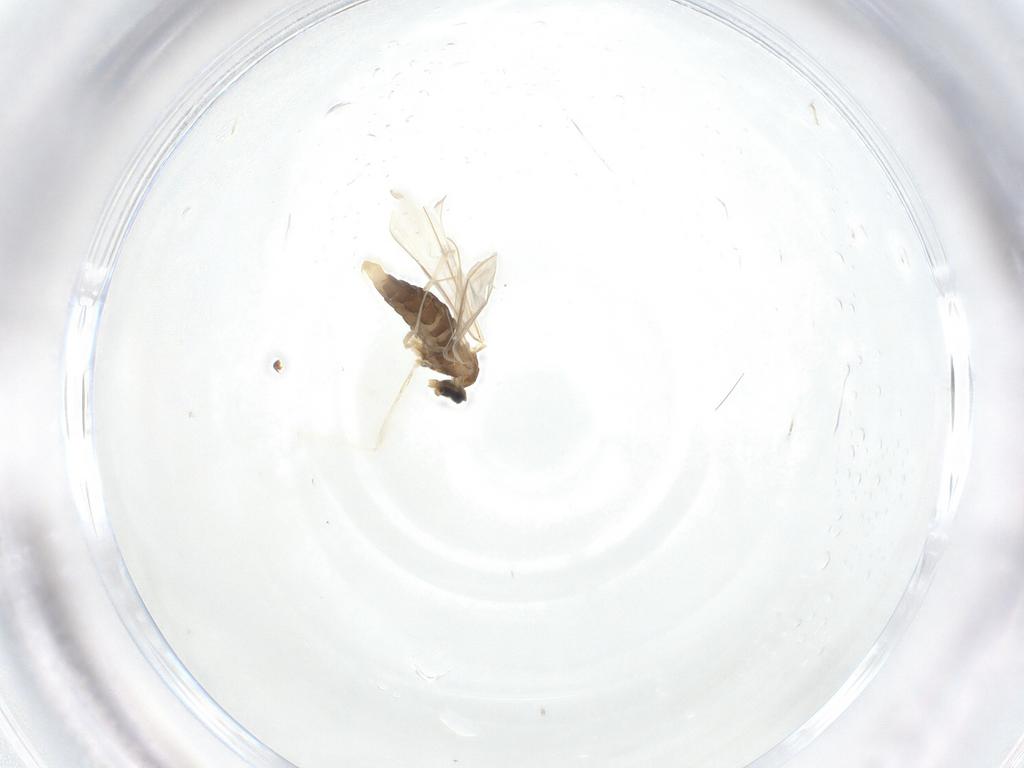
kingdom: Animalia
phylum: Arthropoda
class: Insecta
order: Diptera
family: Cecidomyiidae
